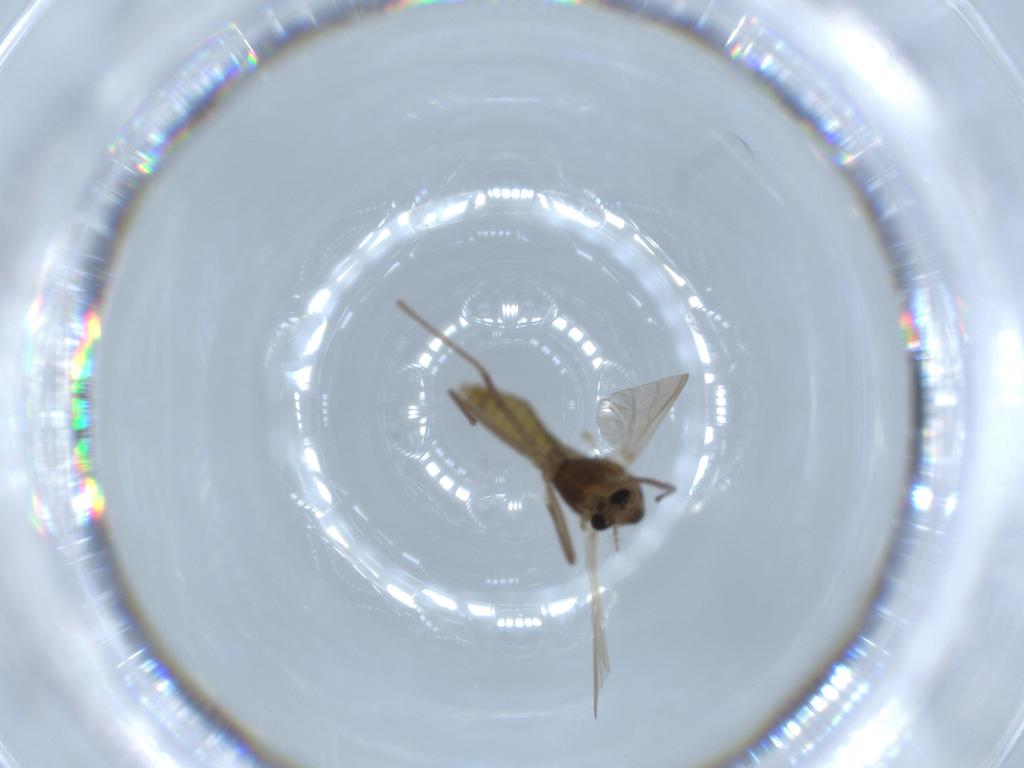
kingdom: Animalia
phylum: Arthropoda
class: Insecta
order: Diptera
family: Chironomidae
